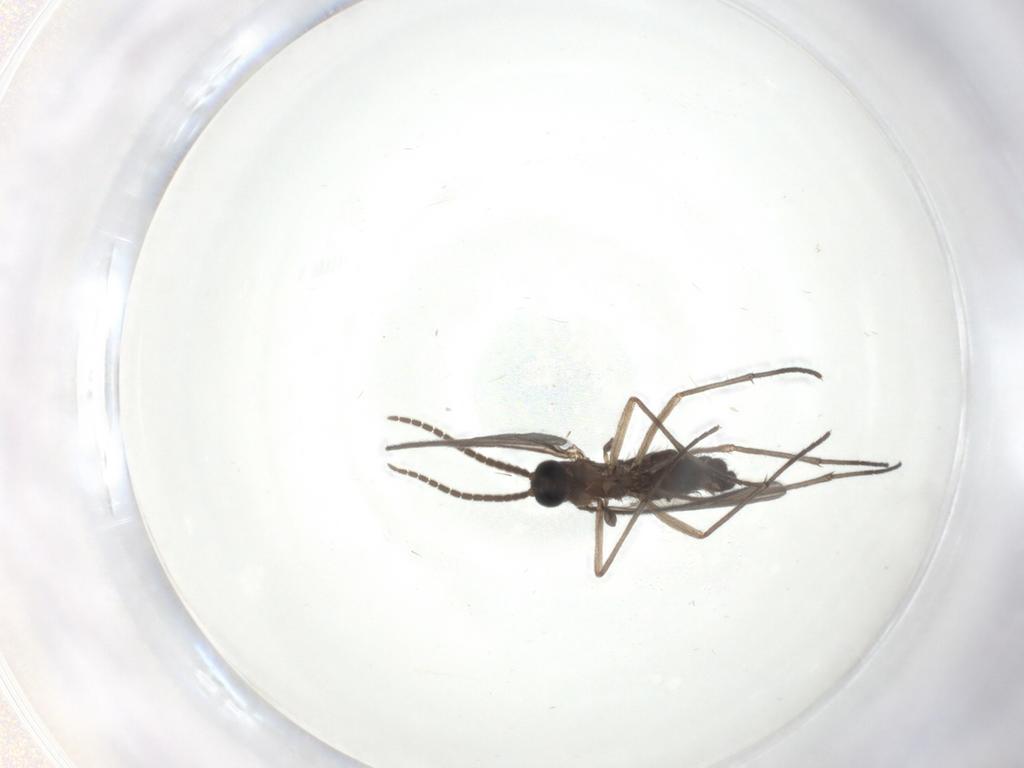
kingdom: Animalia
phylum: Arthropoda
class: Insecta
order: Diptera
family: Sciaridae
